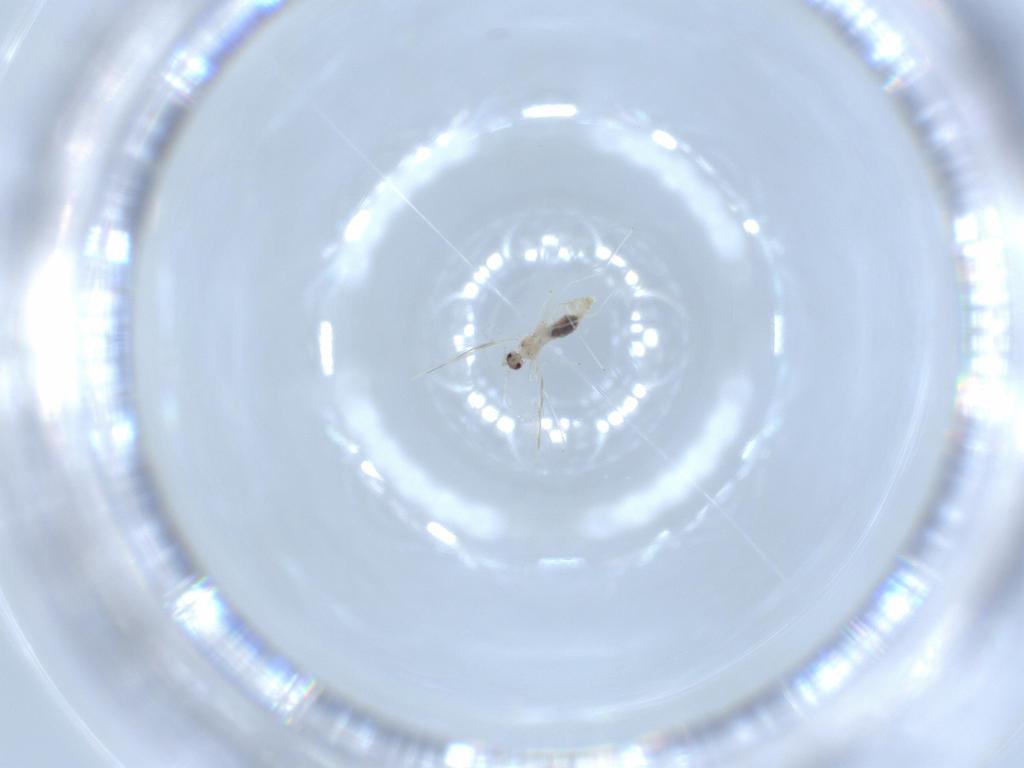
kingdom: Animalia
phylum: Arthropoda
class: Insecta
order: Diptera
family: Cecidomyiidae
